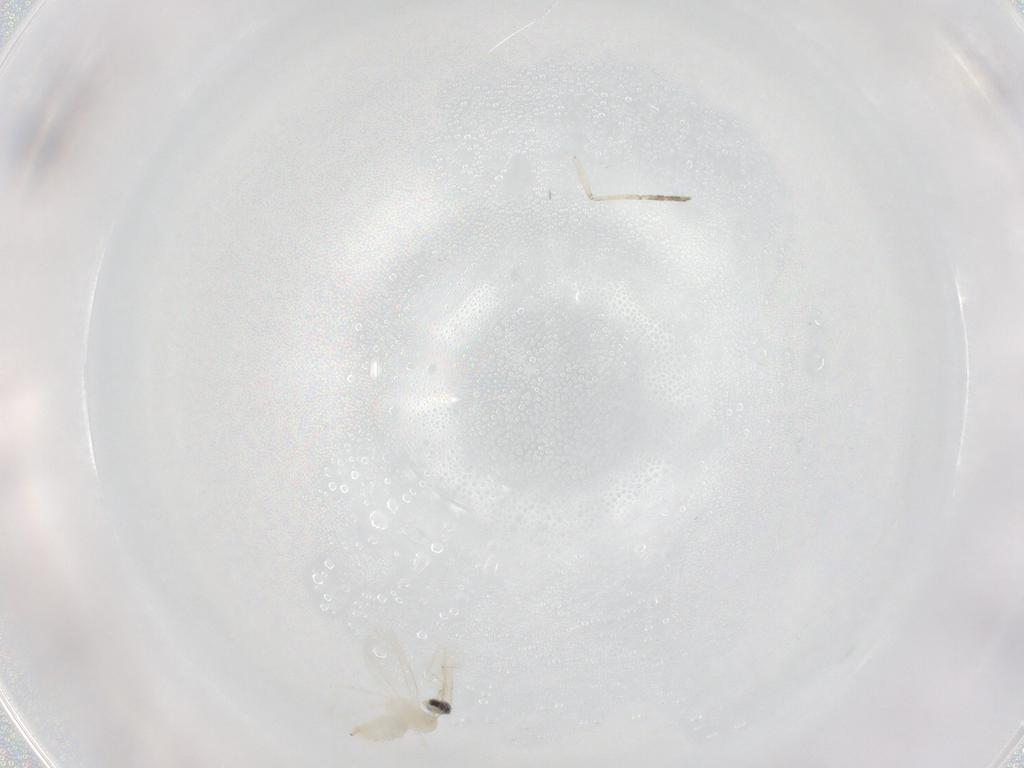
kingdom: Animalia
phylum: Arthropoda
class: Insecta
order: Diptera
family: Cecidomyiidae
